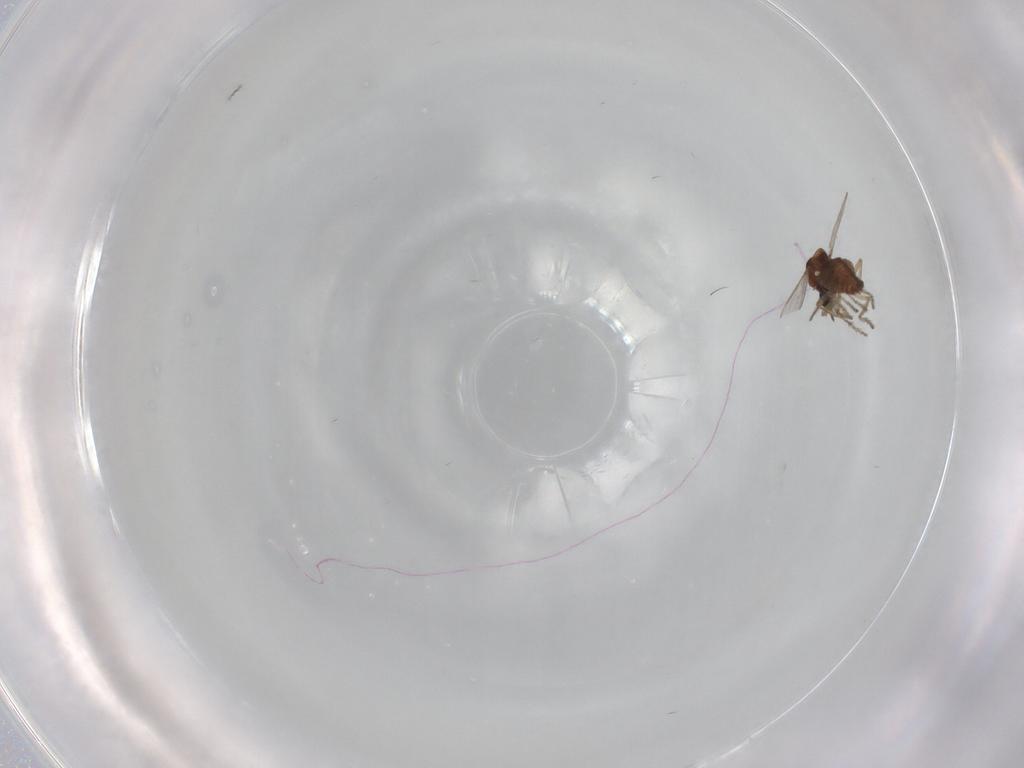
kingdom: Animalia
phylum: Arthropoda
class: Insecta
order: Diptera
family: Ceratopogonidae
